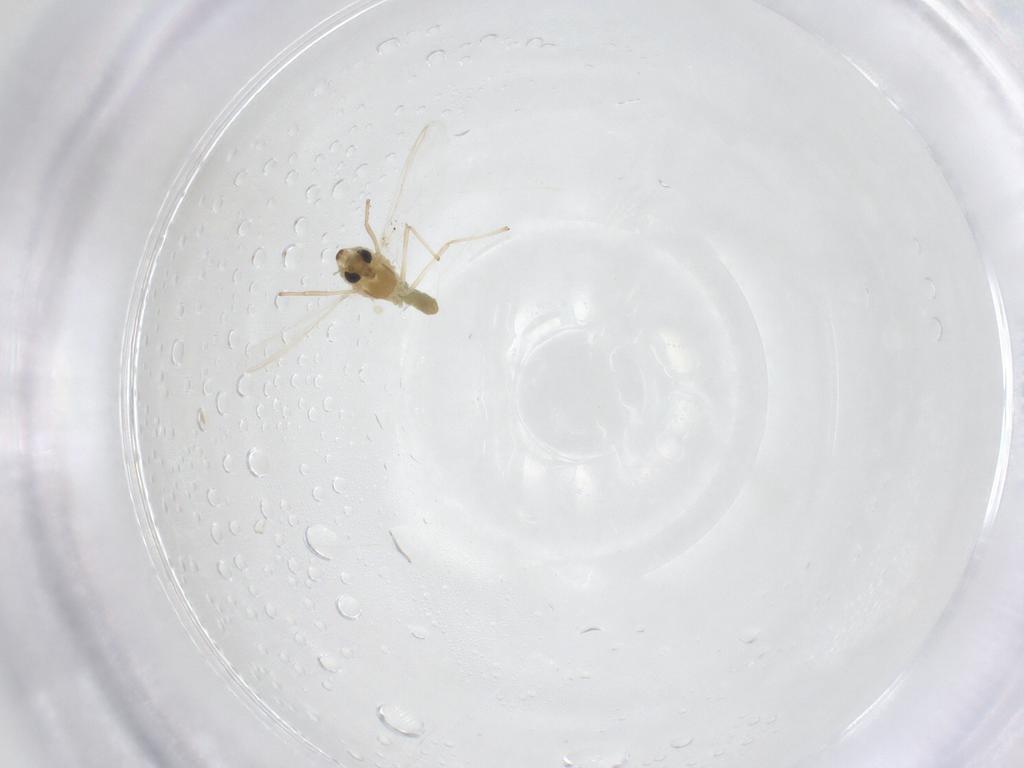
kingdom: Animalia
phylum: Arthropoda
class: Insecta
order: Diptera
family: Chironomidae
